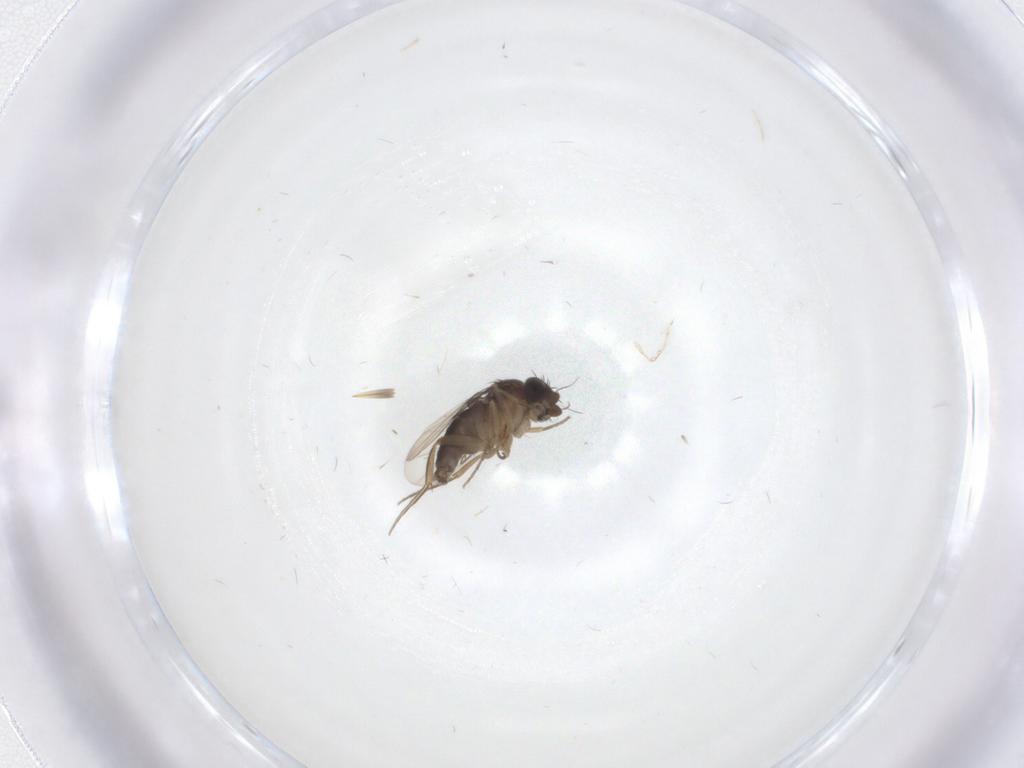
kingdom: Animalia
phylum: Arthropoda
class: Insecta
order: Diptera
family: Phoridae
